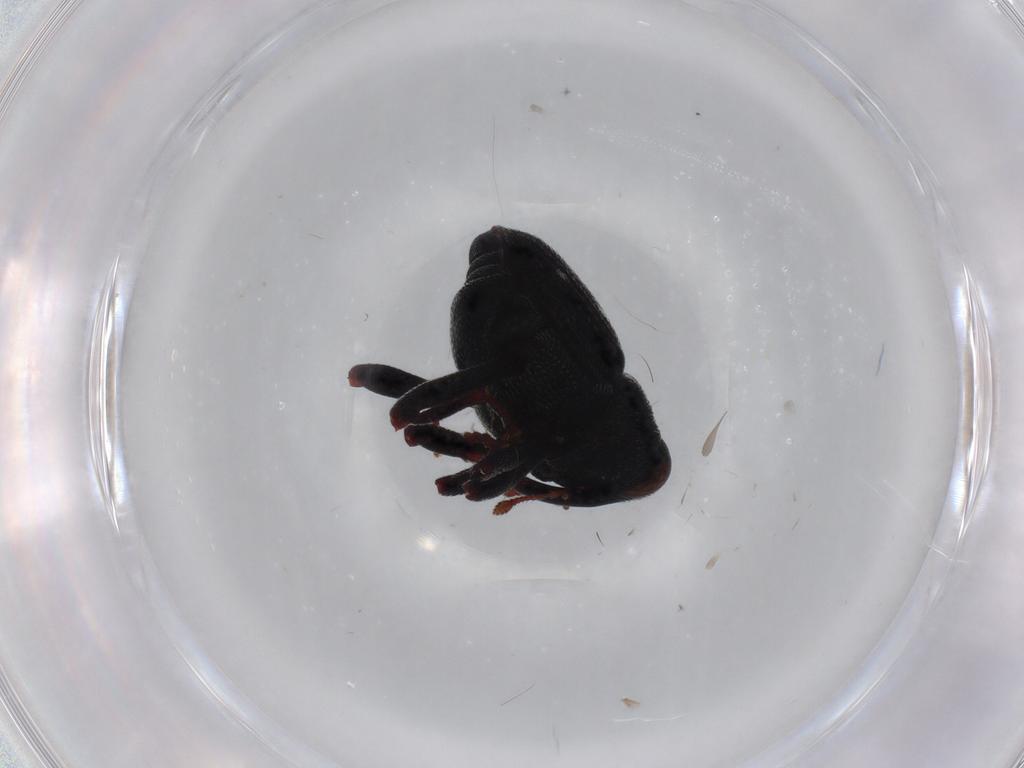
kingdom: Animalia
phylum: Arthropoda
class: Insecta
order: Coleoptera
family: Curculionidae
